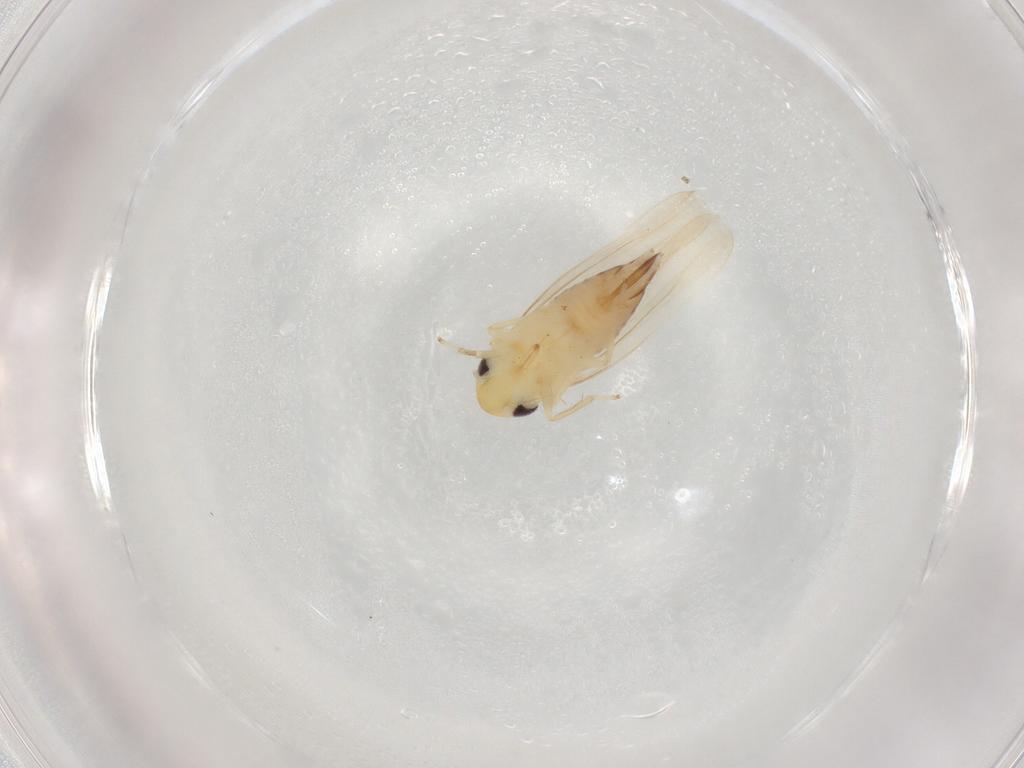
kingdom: Animalia
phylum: Arthropoda
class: Insecta
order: Hemiptera
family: Cicadellidae
